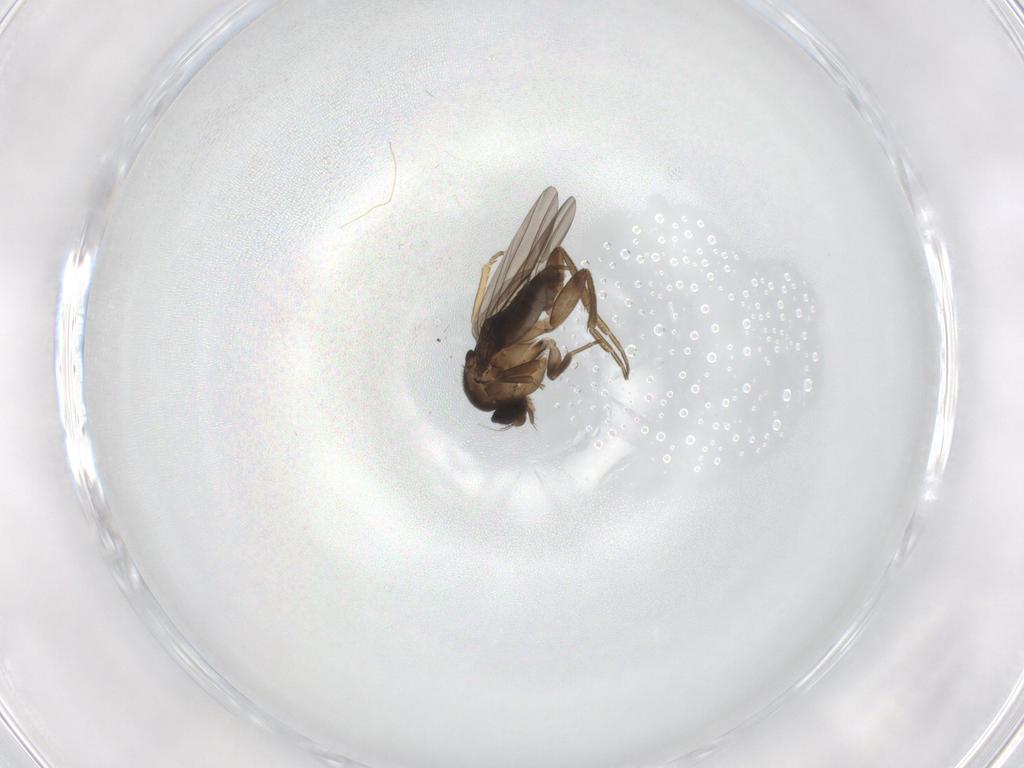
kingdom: Animalia
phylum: Arthropoda
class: Insecta
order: Diptera
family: Phoridae
